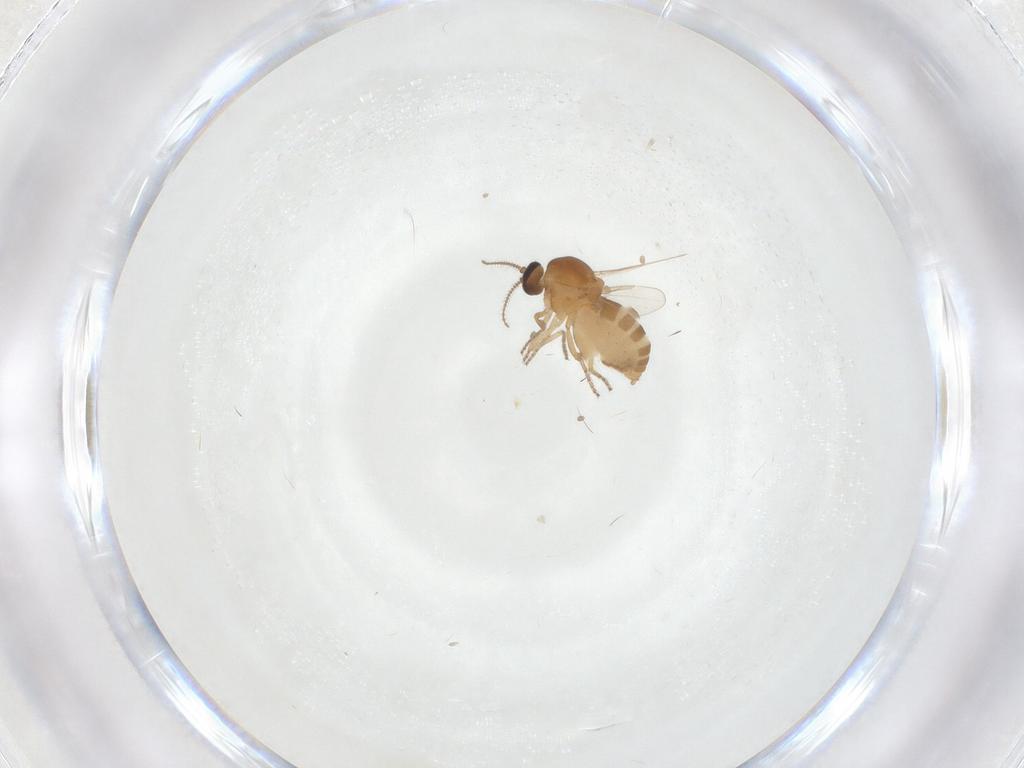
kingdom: Animalia
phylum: Arthropoda
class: Insecta
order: Diptera
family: Ceratopogonidae
